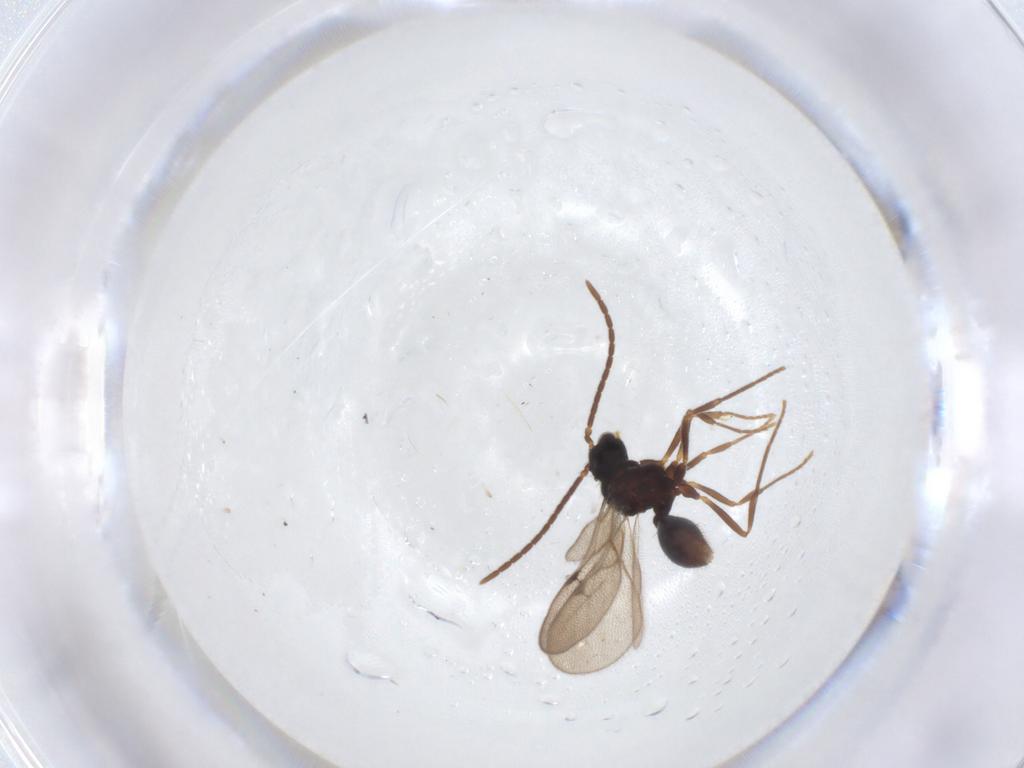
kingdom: Animalia
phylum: Arthropoda
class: Insecta
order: Hymenoptera
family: Formicidae
